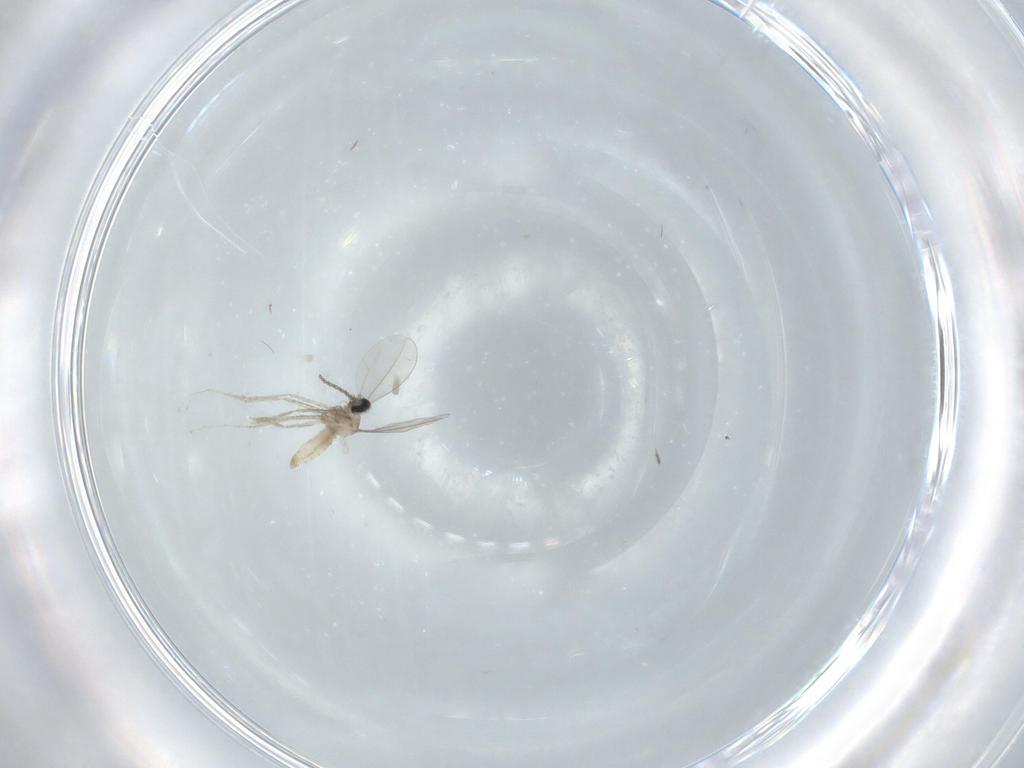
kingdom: Animalia
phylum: Arthropoda
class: Insecta
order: Diptera
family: Cecidomyiidae
